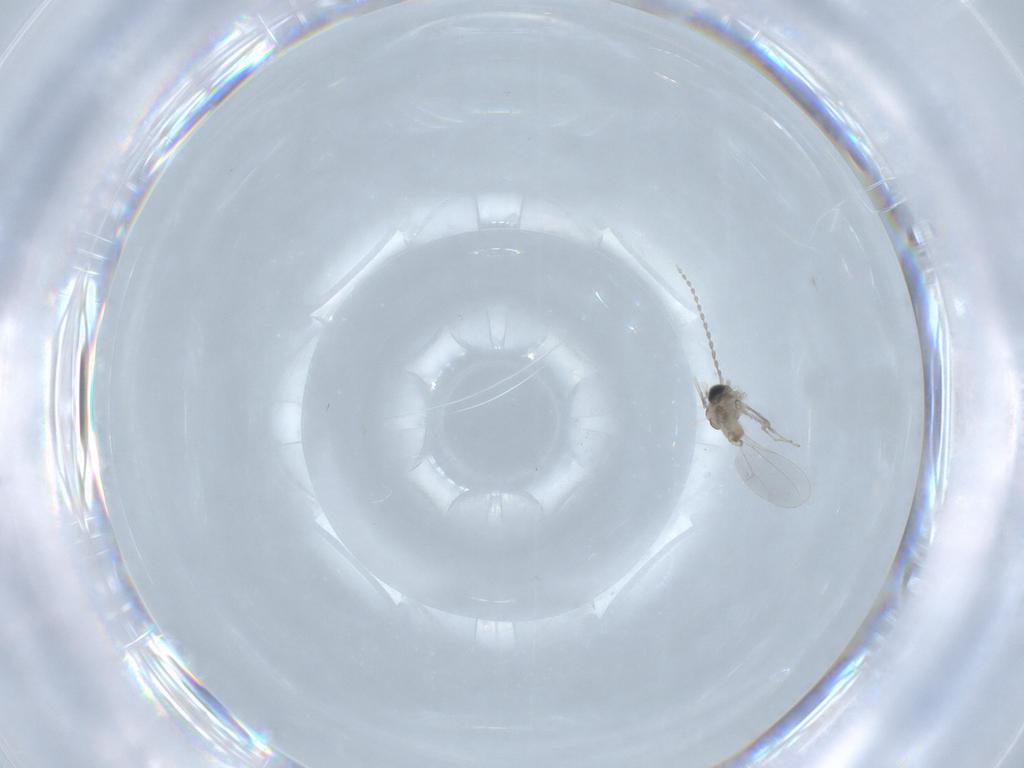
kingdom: Animalia
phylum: Arthropoda
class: Insecta
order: Diptera
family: Cecidomyiidae
